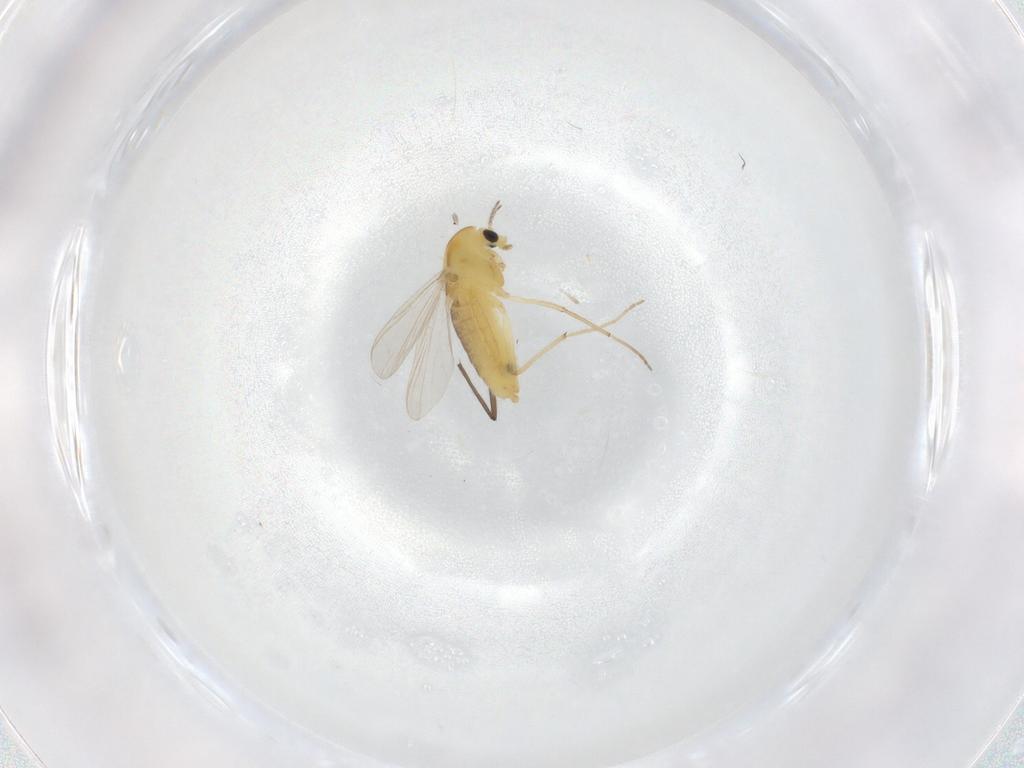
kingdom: Animalia
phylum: Arthropoda
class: Insecta
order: Diptera
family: Chironomidae
